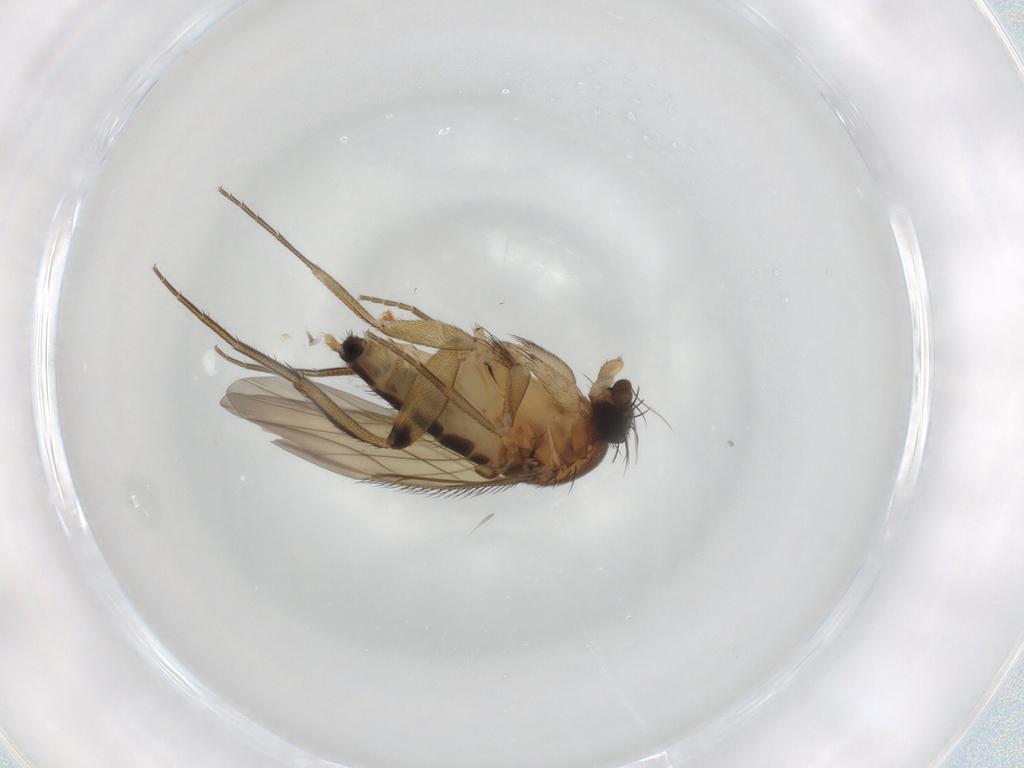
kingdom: Animalia
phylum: Arthropoda
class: Insecta
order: Diptera
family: Phoridae
